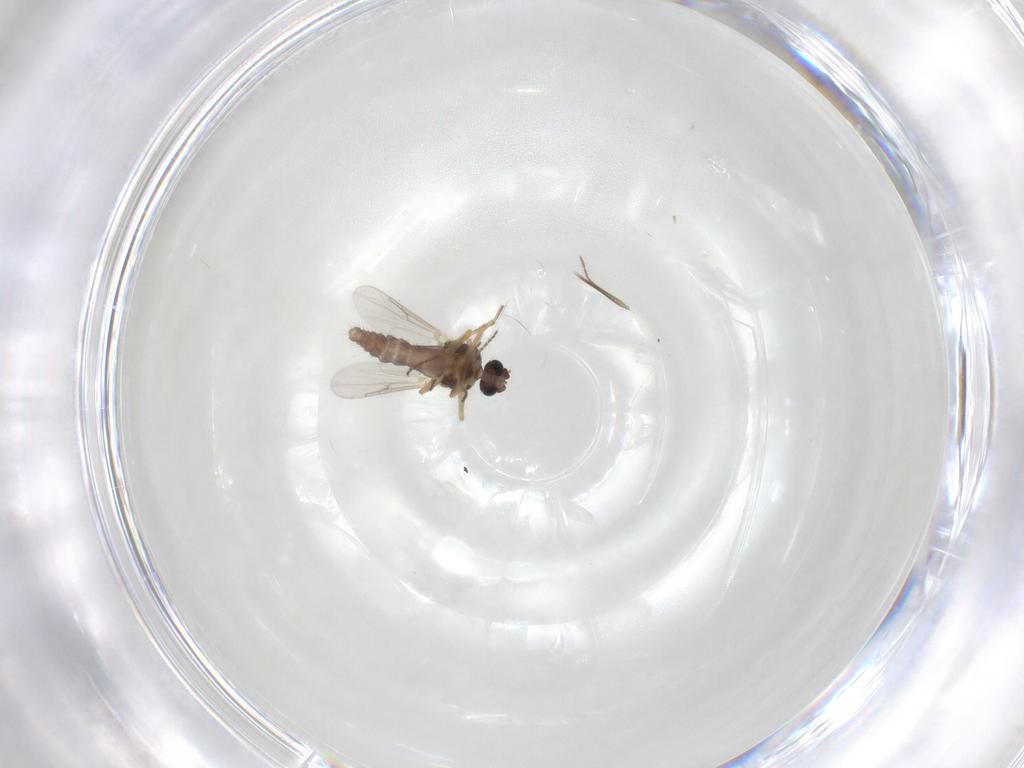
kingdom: Animalia
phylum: Arthropoda
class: Insecta
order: Diptera
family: Ceratopogonidae
